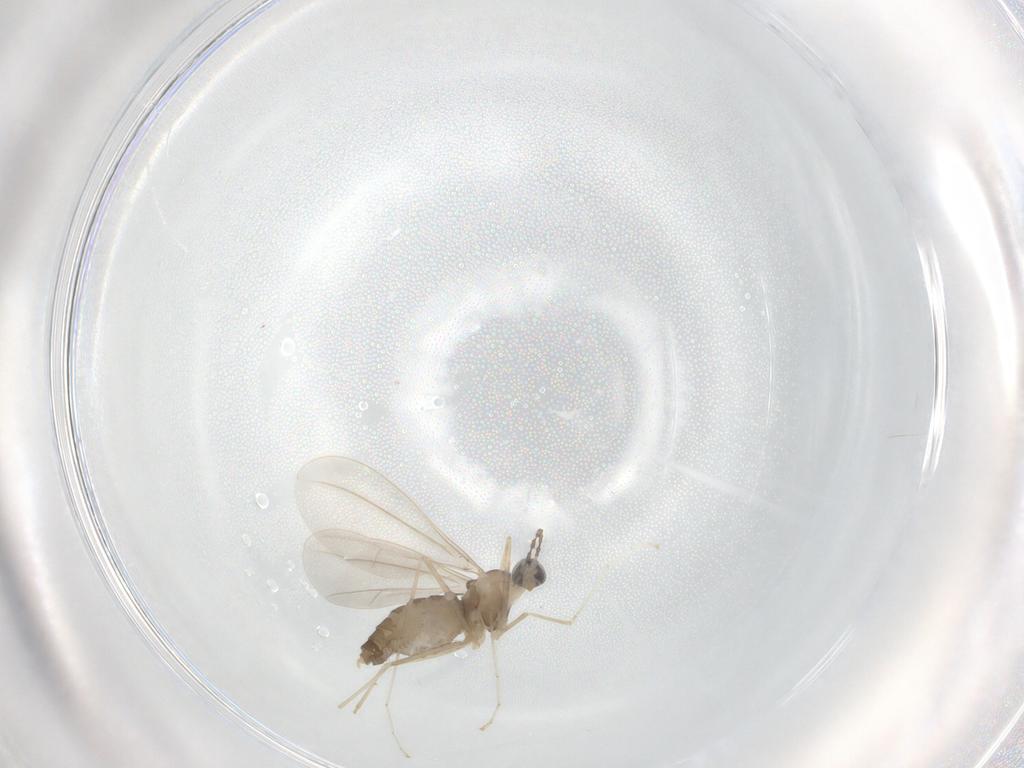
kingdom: Animalia
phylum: Arthropoda
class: Insecta
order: Diptera
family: Cecidomyiidae
